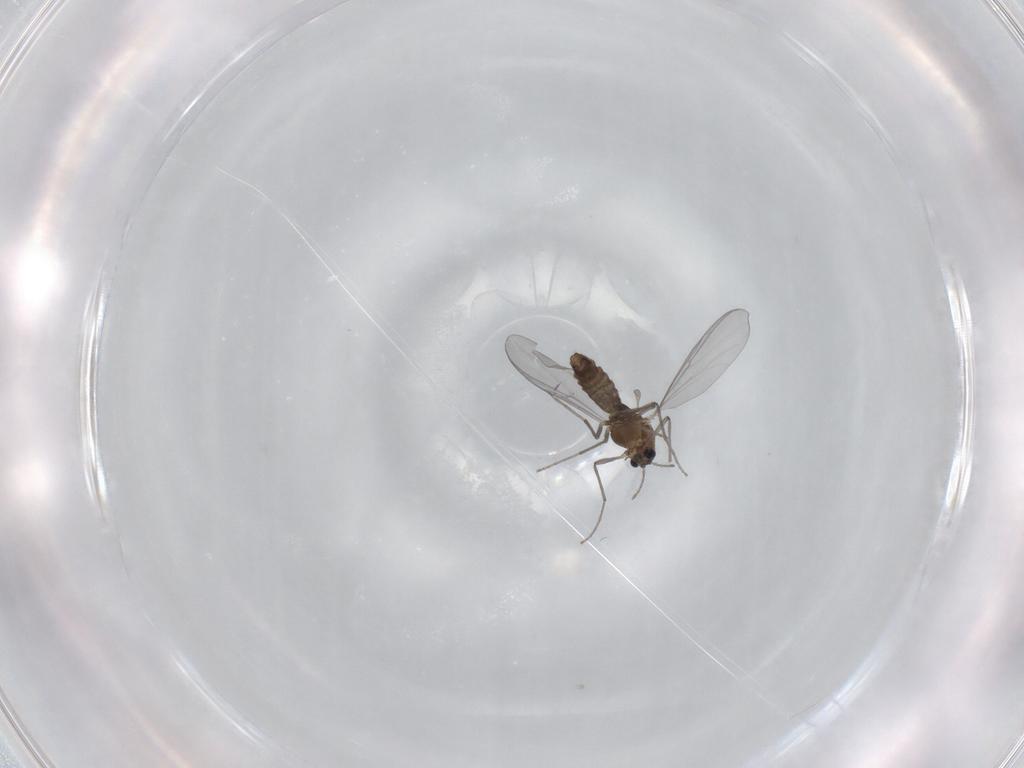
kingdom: Animalia
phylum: Arthropoda
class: Insecta
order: Diptera
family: Chironomidae
